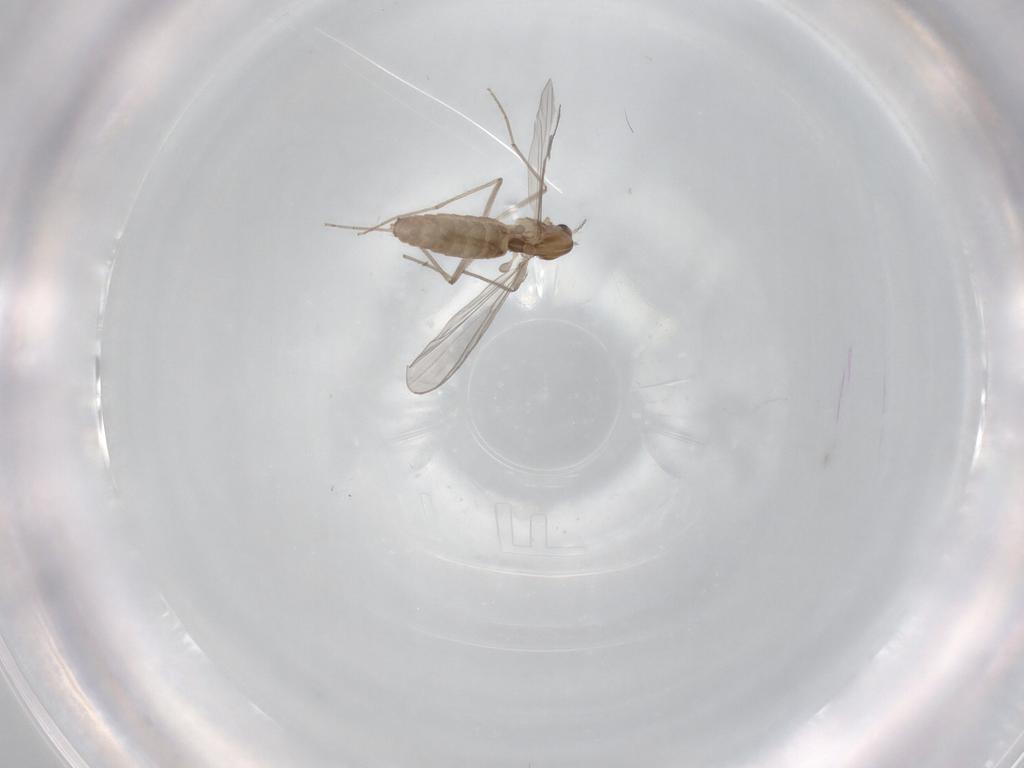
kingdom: Animalia
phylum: Arthropoda
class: Insecta
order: Diptera
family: Chironomidae
